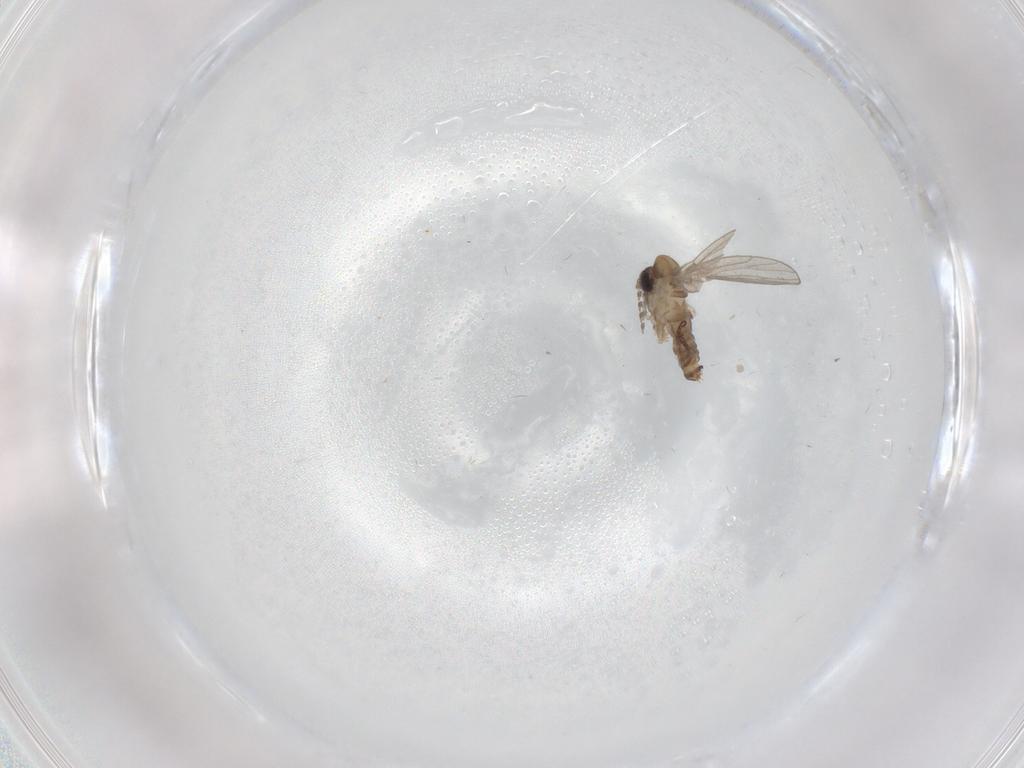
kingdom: Animalia
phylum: Arthropoda
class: Insecta
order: Diptera
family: Psychodidae
